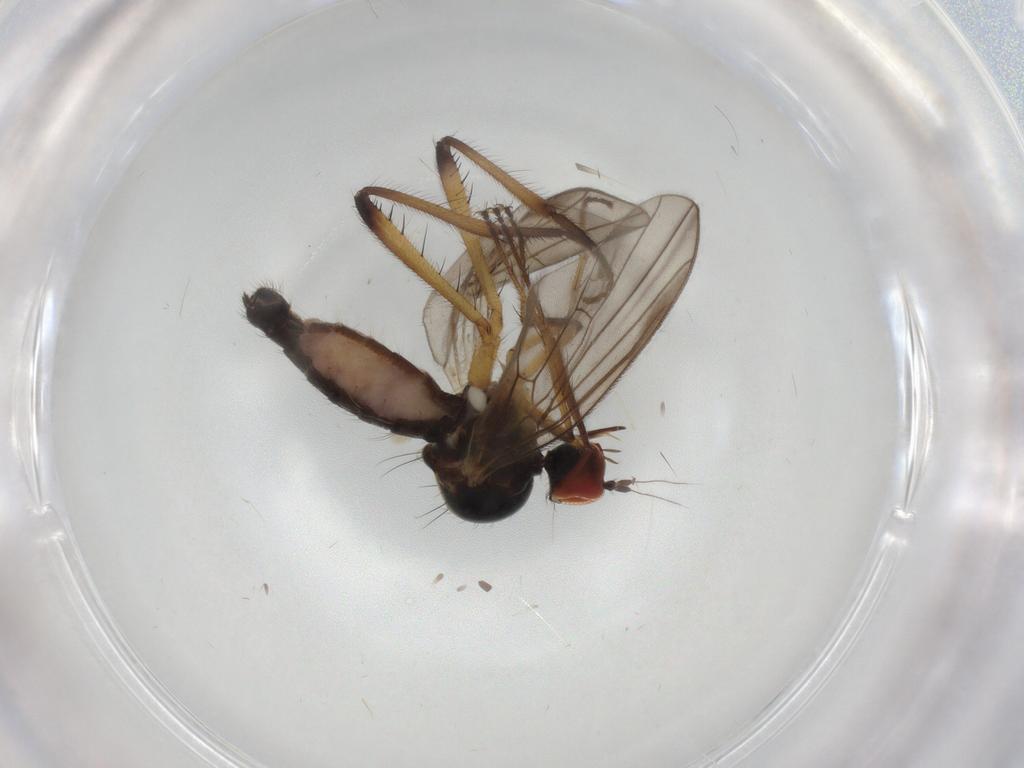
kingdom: Animalia
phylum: Arthropoda
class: Insecta
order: Diptera
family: Hybotidae
